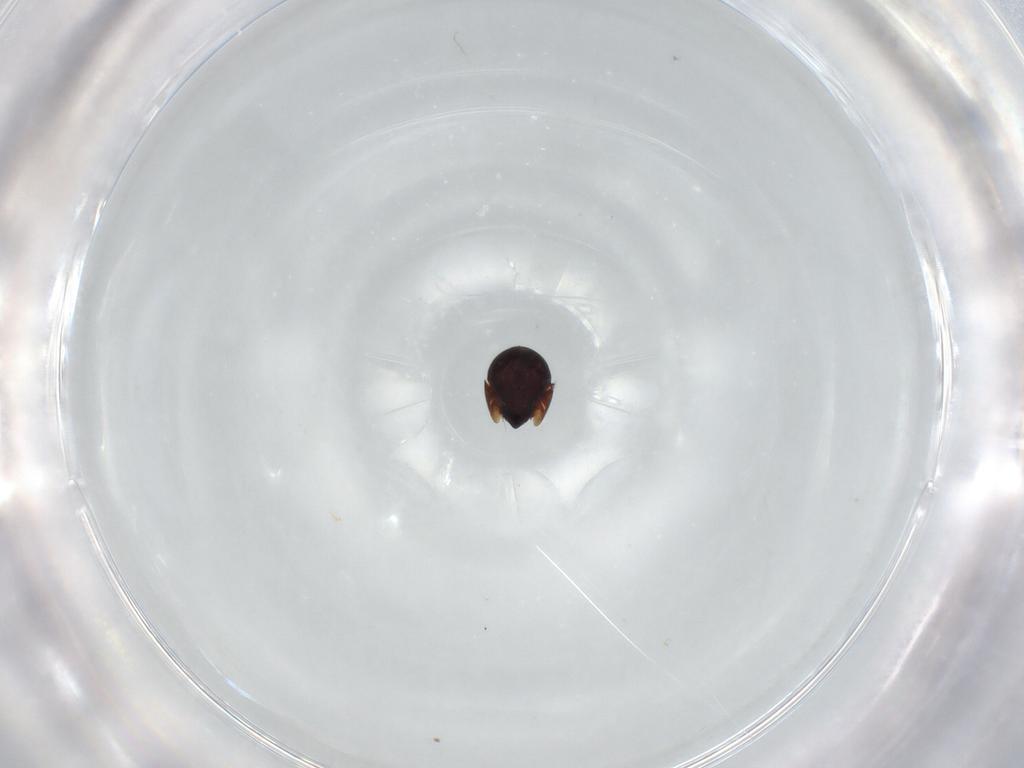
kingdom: Animalia
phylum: Arthropoda
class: Arachnida
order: Sarcoptiformes
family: Ceratozetidae
